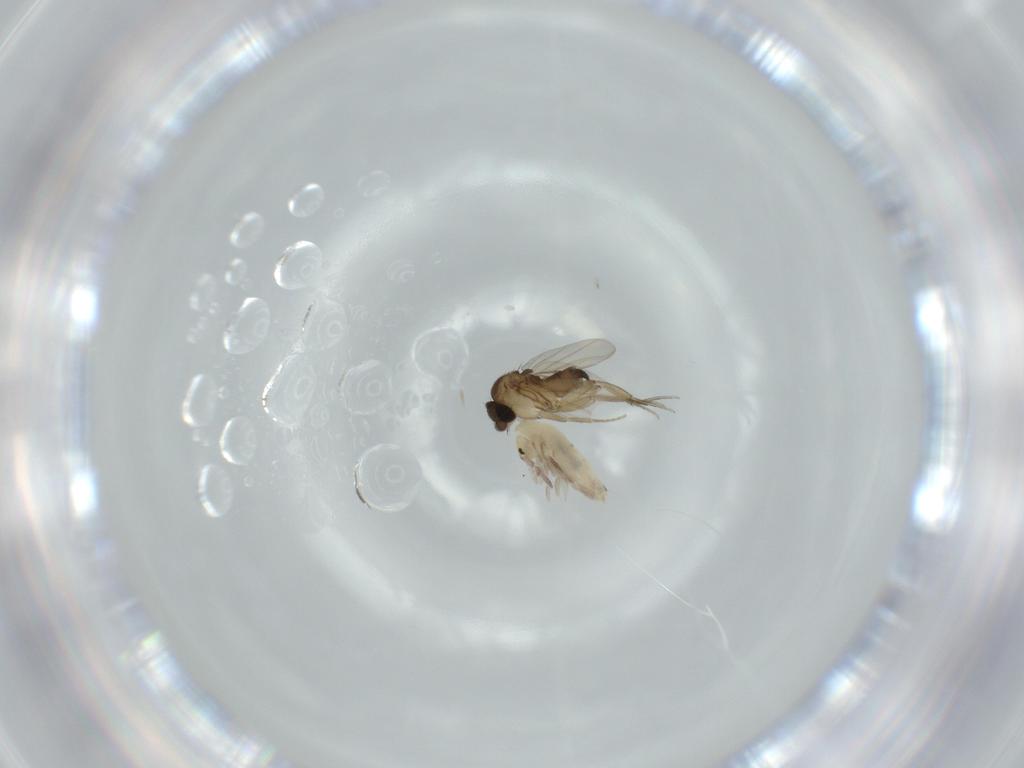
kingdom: Animalia
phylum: Arthropoda
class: Insecta
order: Diptera
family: Phoridae
